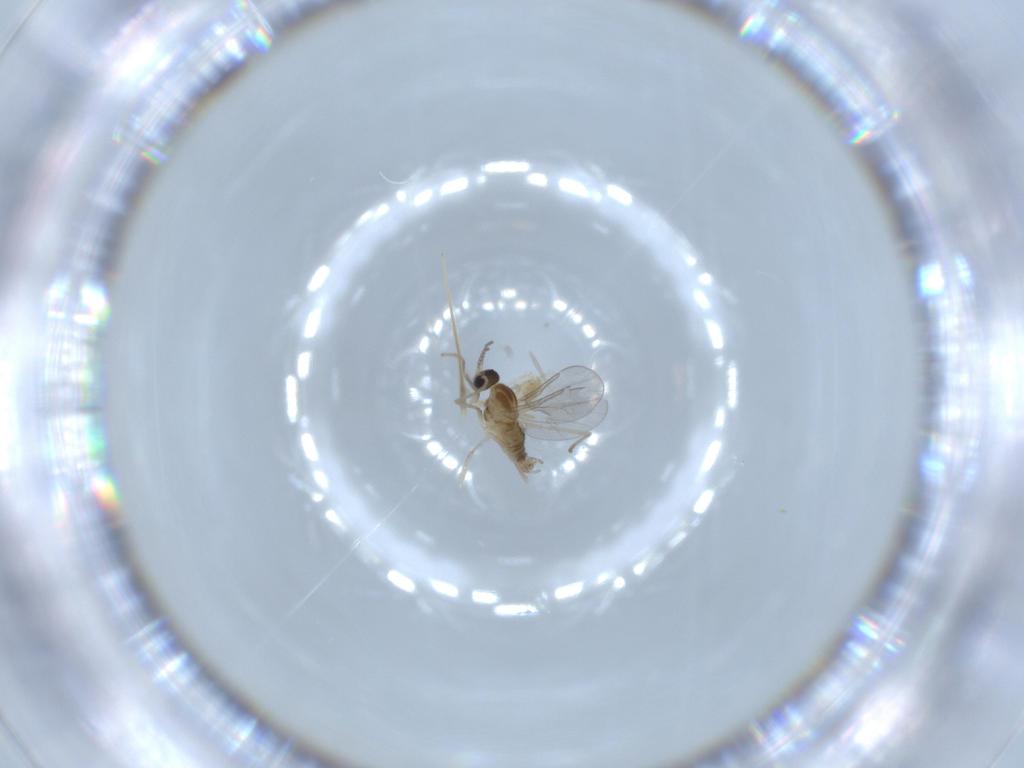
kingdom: Animalia
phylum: Arthropoda
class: Insecta
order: Diptera
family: Cecidomyiidae
